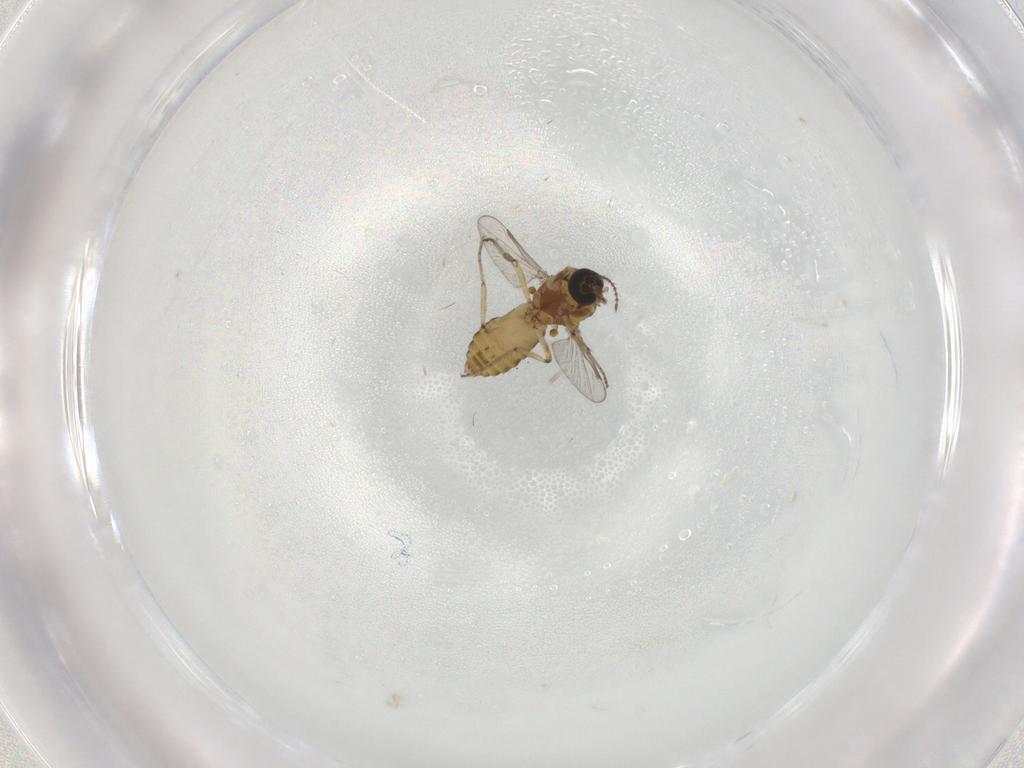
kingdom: Animalia
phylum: Arthropoda
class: Insecta
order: Diptera
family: Ceratopogonidae
